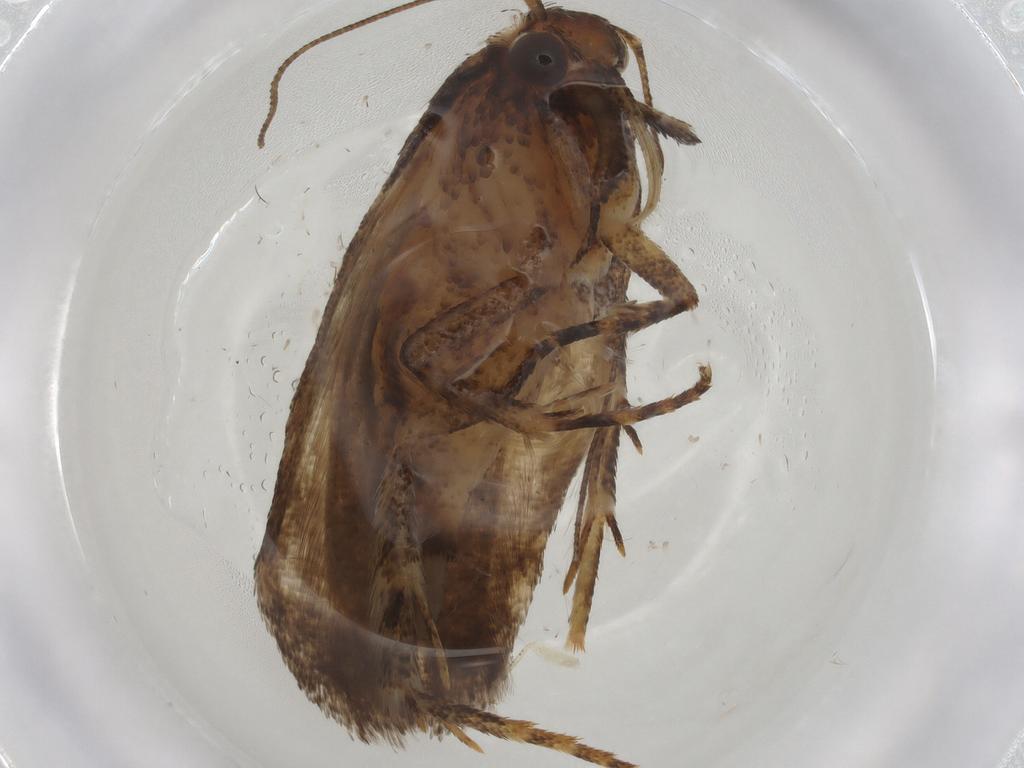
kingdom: Animalia
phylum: Arthropoda
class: Insecta
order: Lepidoptera
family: Gelechiidae
